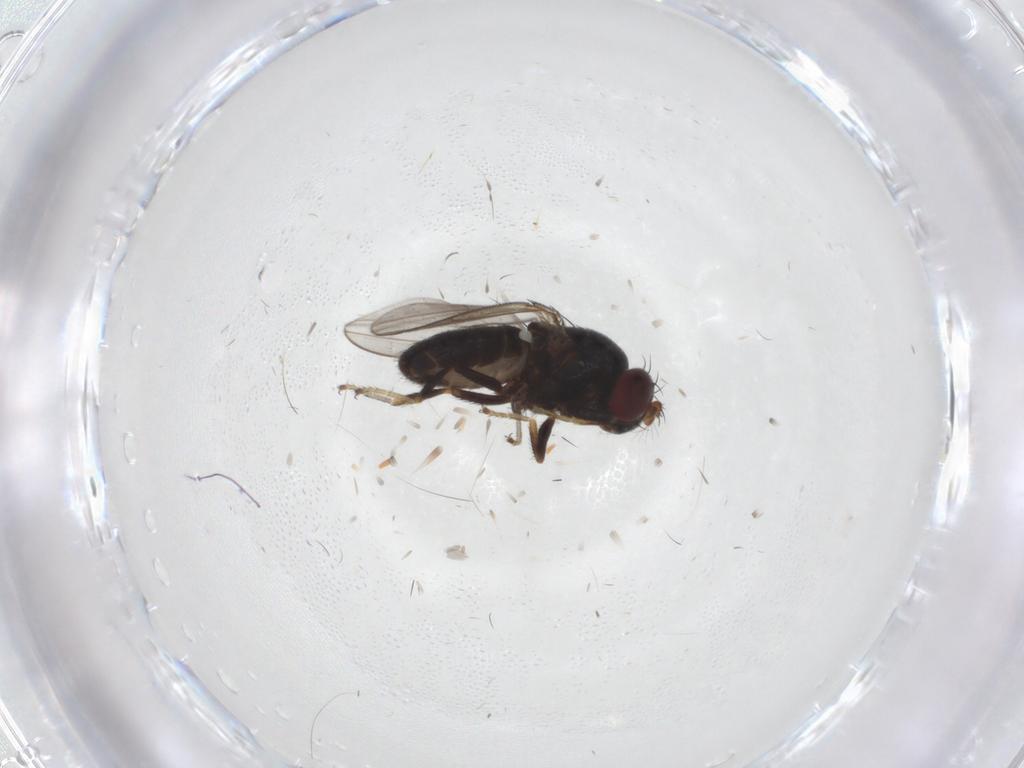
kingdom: Animalia
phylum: Arthropoda
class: Insecta
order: Diptera
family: Ephydridae
